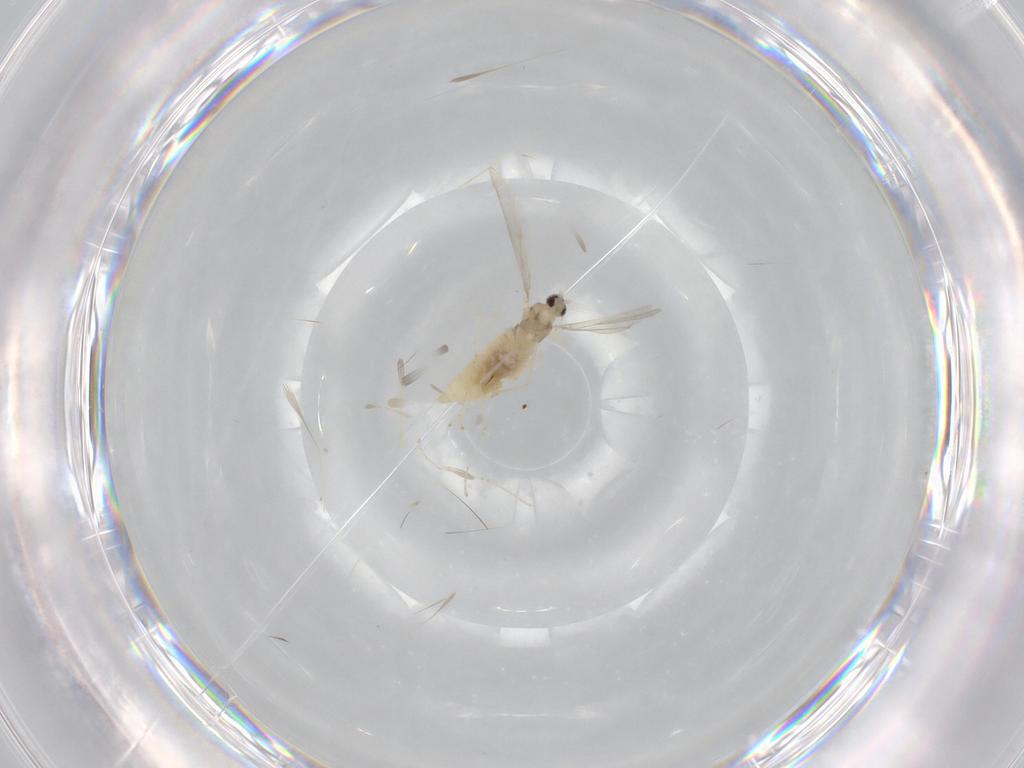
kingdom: Animalia
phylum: Arthropoda
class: Insecta
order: Diptera
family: Cecidomyiidae
